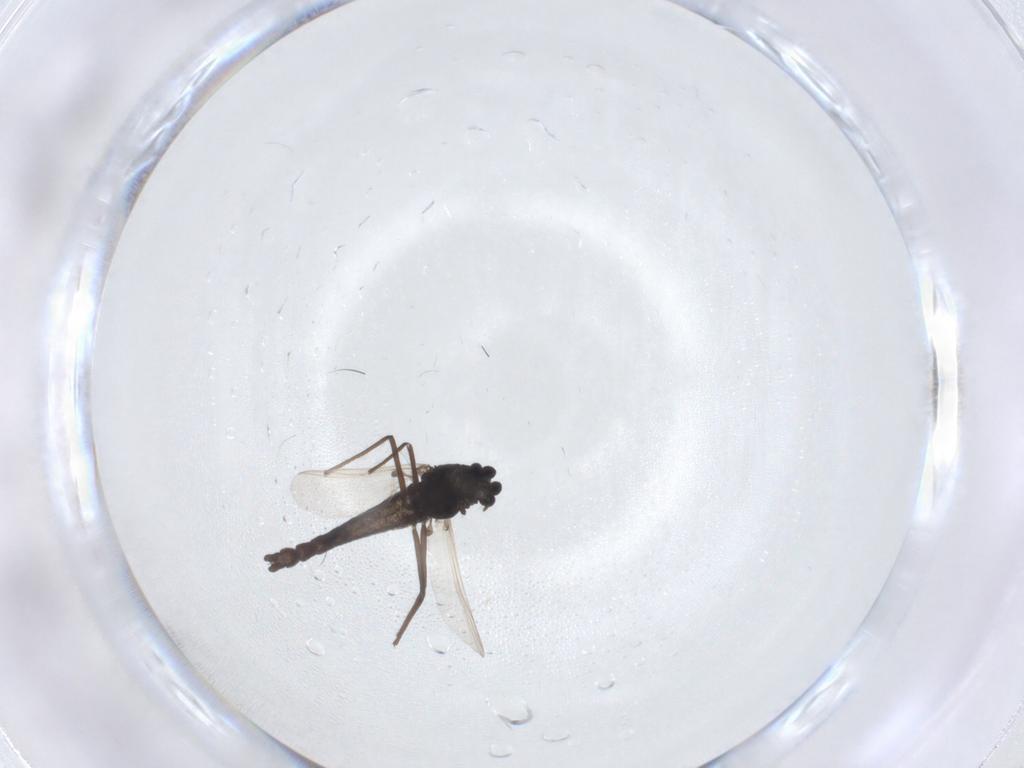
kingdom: Animalia
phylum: Arthropoda
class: Insecta
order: Diptera
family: Chironomidae
